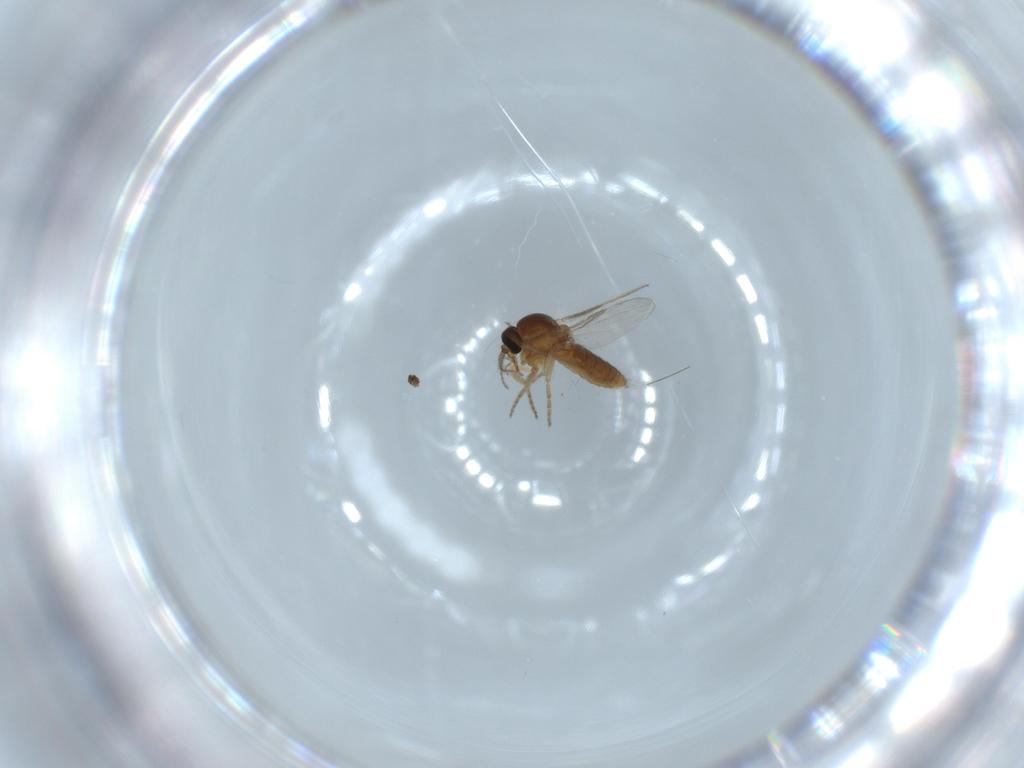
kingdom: Animalia
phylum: Arthropoda
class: Insecta
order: Diptera
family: Ceratopogonidae
